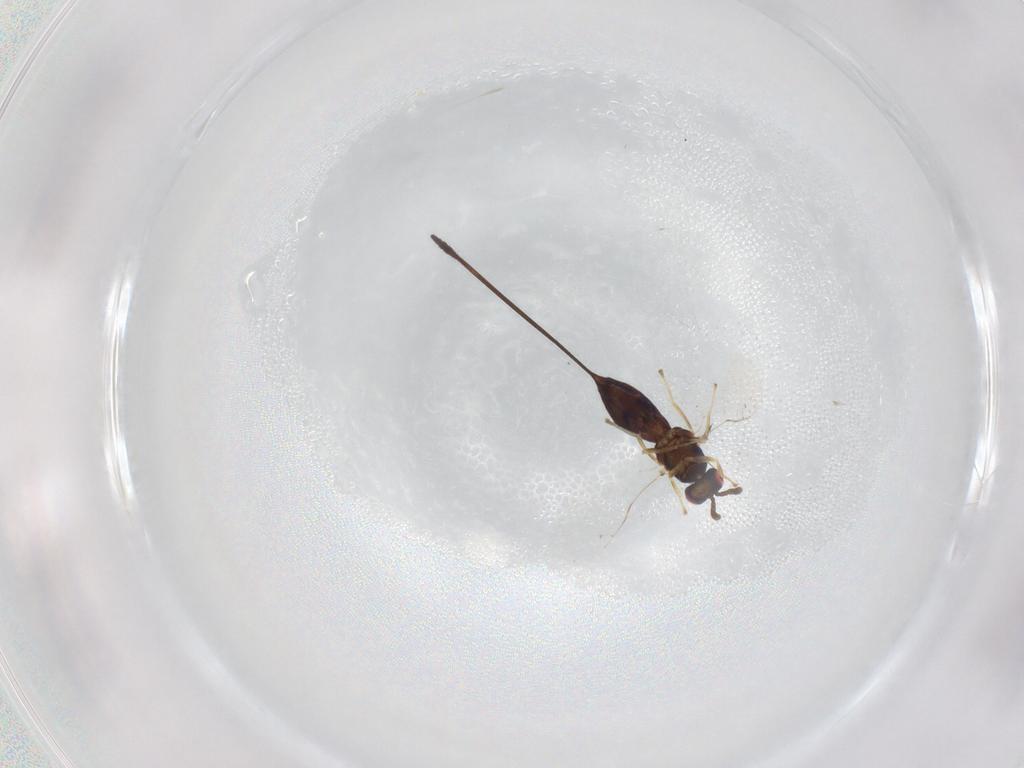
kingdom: Animalia
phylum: Arthropoda
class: Insecta
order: Hymenoptera
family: Pteromalidae
